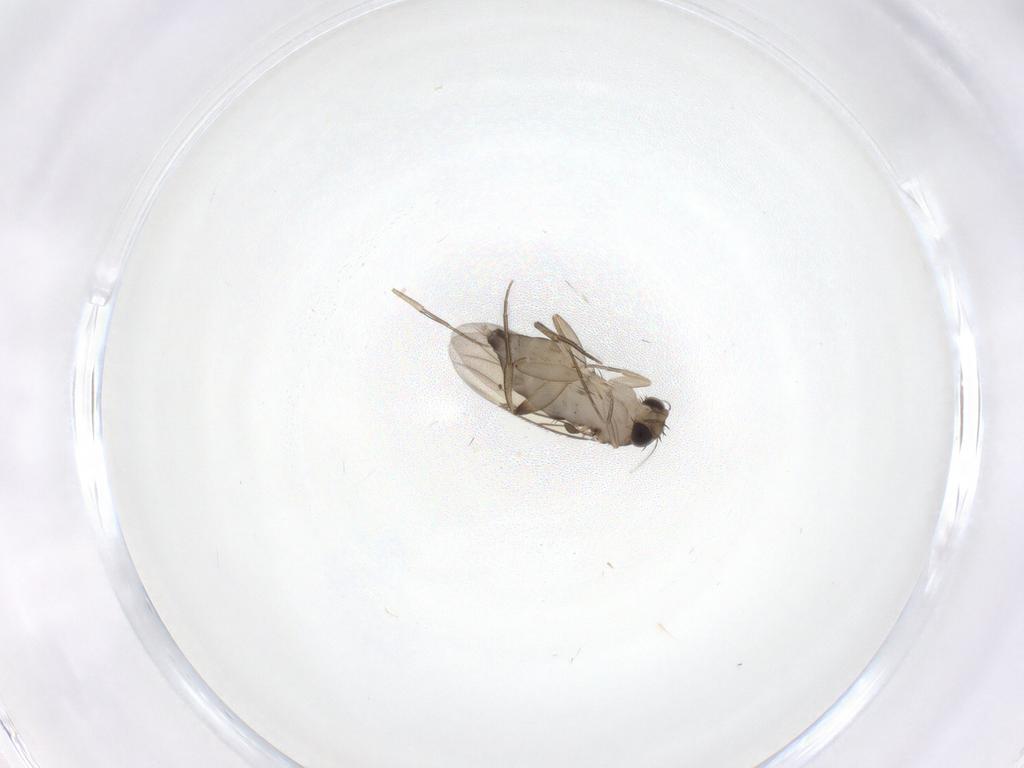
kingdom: Animalia
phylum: Arthropoda
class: Insecta
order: Diptera
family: Phoridae
